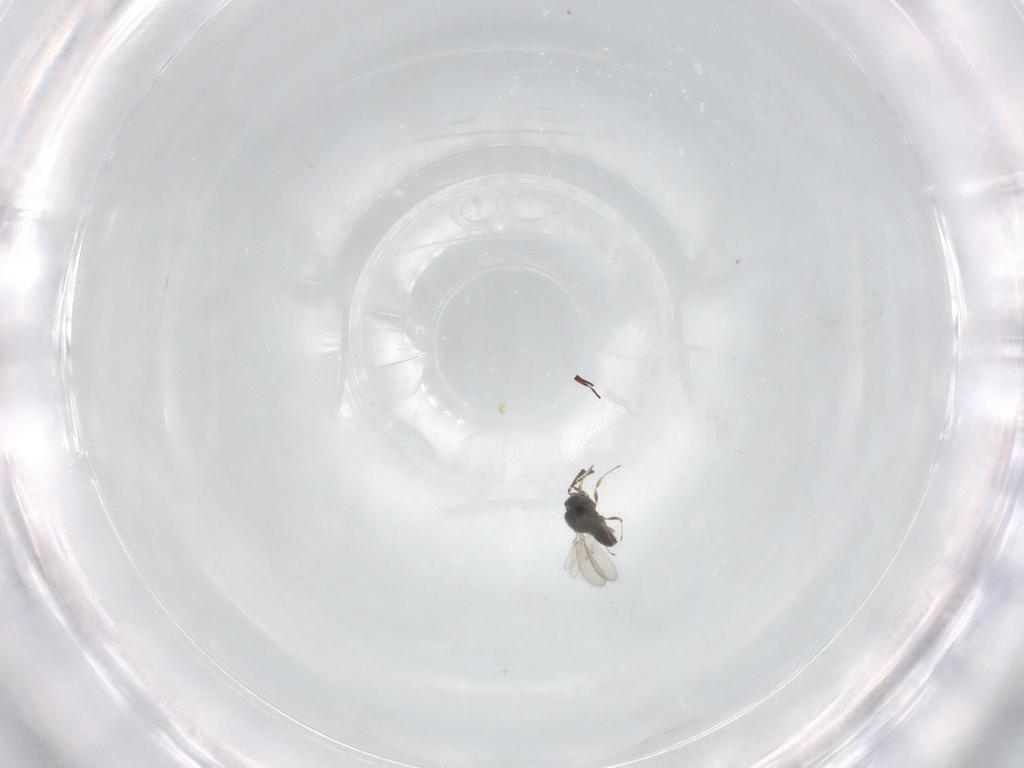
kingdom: Animalia
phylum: Arthropoda
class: Insecta
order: Hymenoptera
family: Scelionidae
